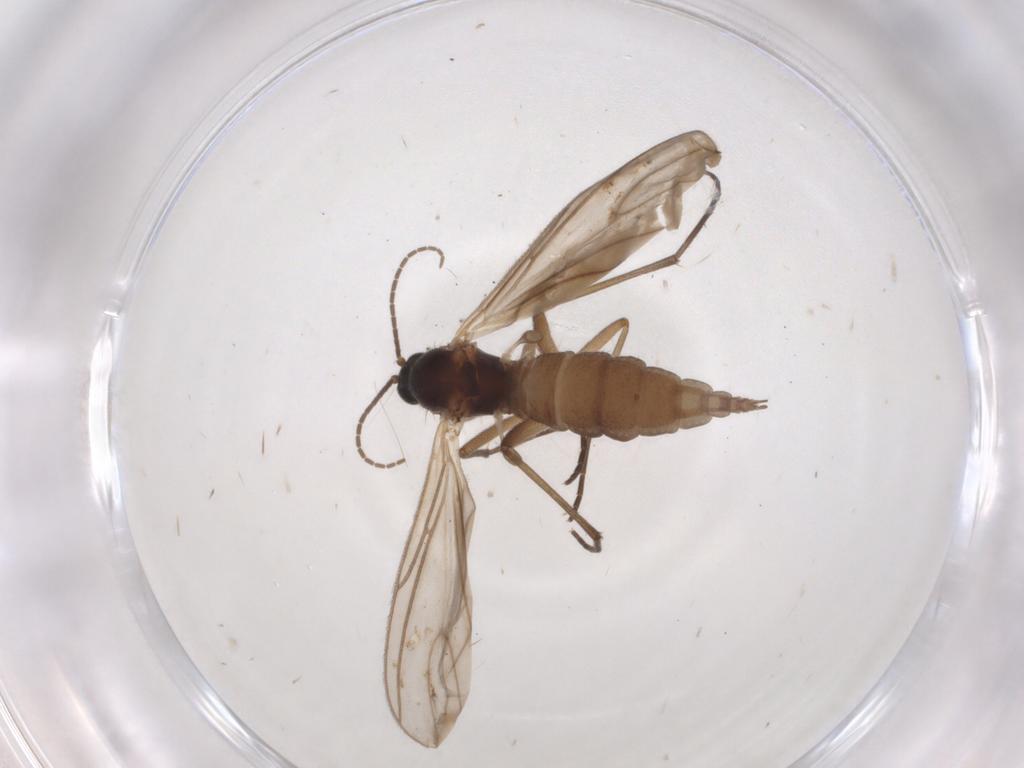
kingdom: Animalia
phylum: Arthropoda
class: Insecta
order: Diptera
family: Sciaridae
